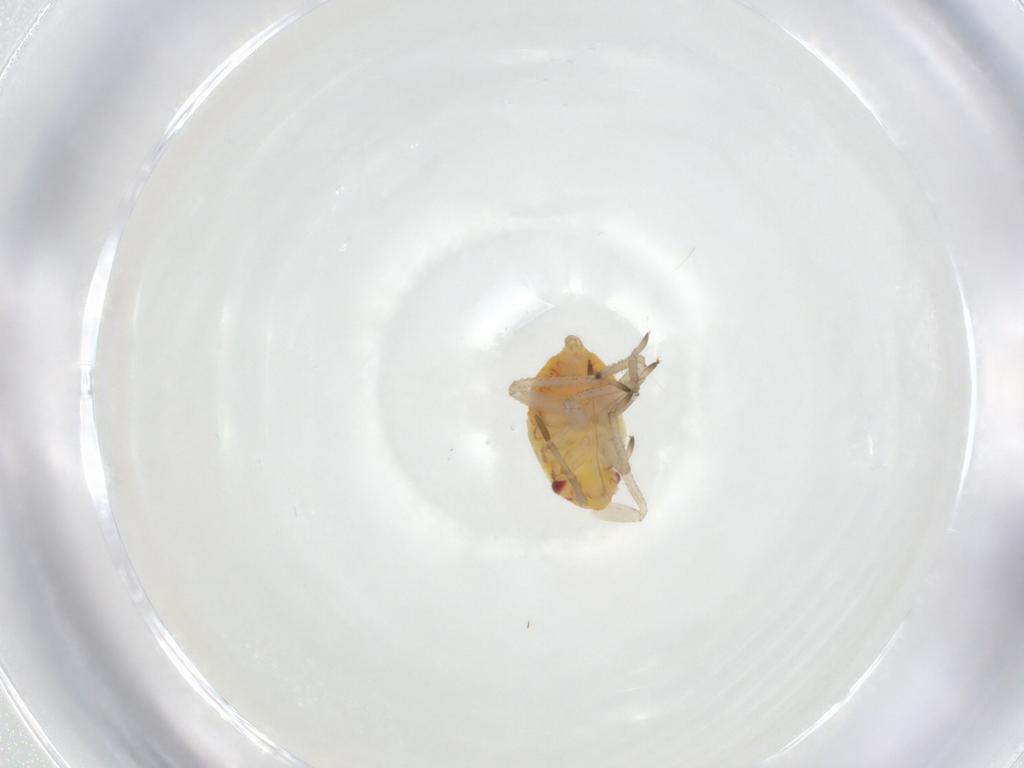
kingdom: Animalia
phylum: Arthropoda
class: Insecta
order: Hemiptera
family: Miridae
